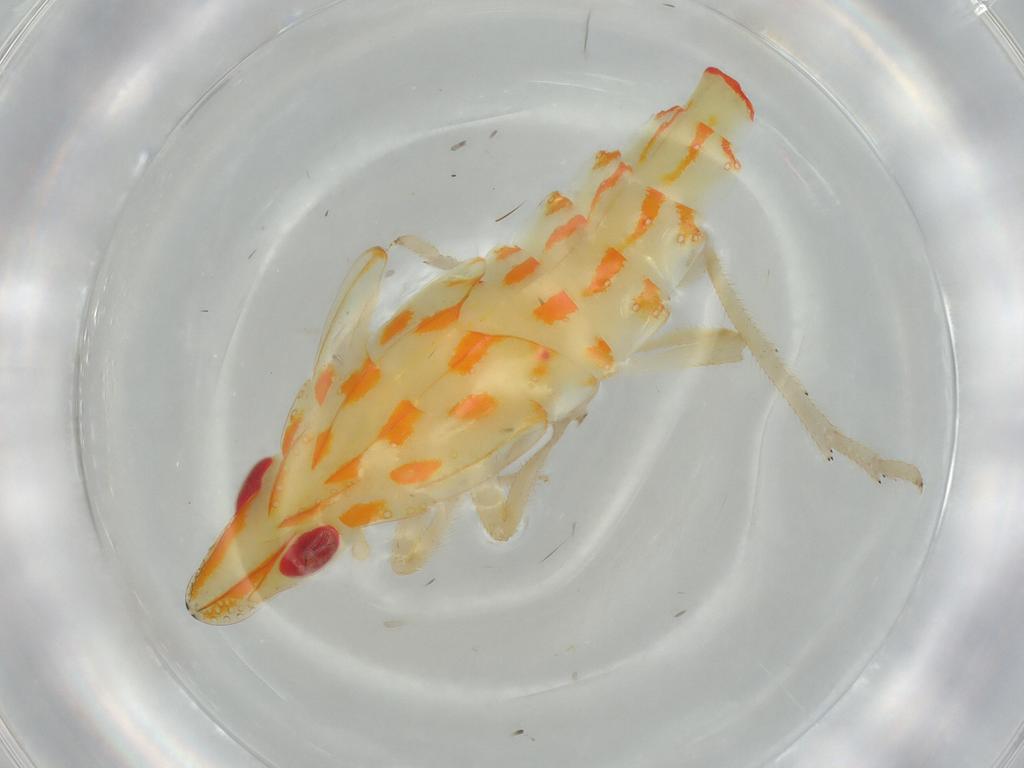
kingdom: Animalia
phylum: Arthropoda
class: Insecta
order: Hemiptera
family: Tropiduchidae
